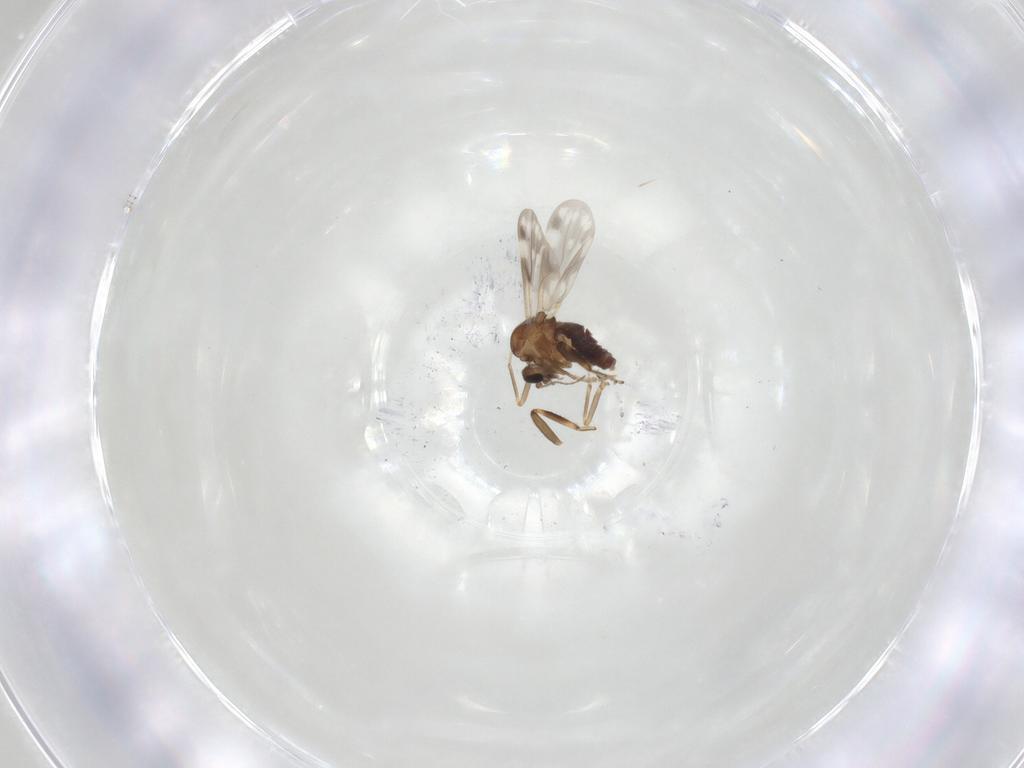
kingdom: Animalia
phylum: Arthropoda
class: Insecta
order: Diptera
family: Ceratopogonidae
